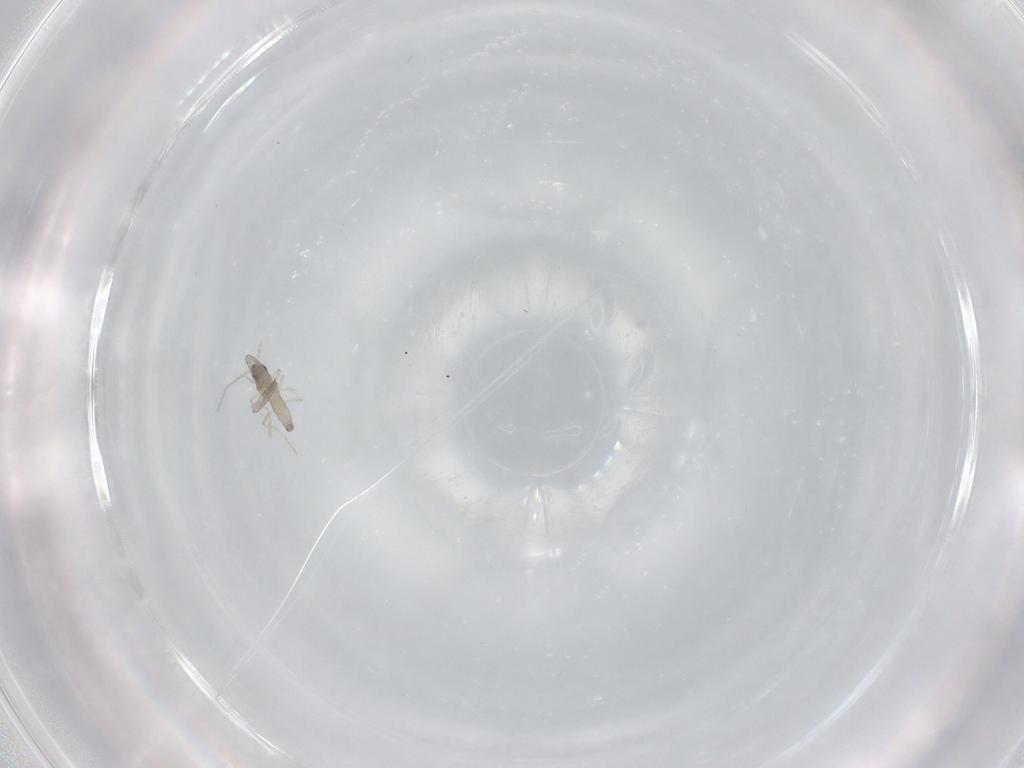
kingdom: Animalia
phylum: Arthropoda
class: Insecta
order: Diptera
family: Cecidomyiidae
